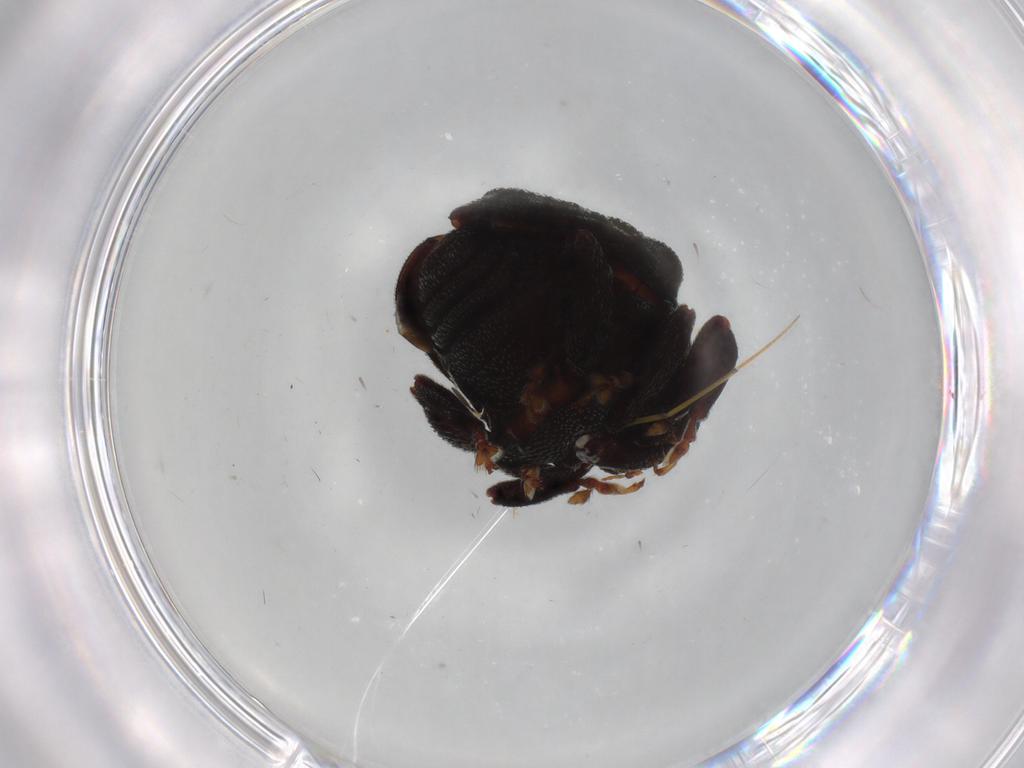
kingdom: Animalia
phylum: Arthropoda
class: Insecta
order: Coleoptera
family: Curculionidae
